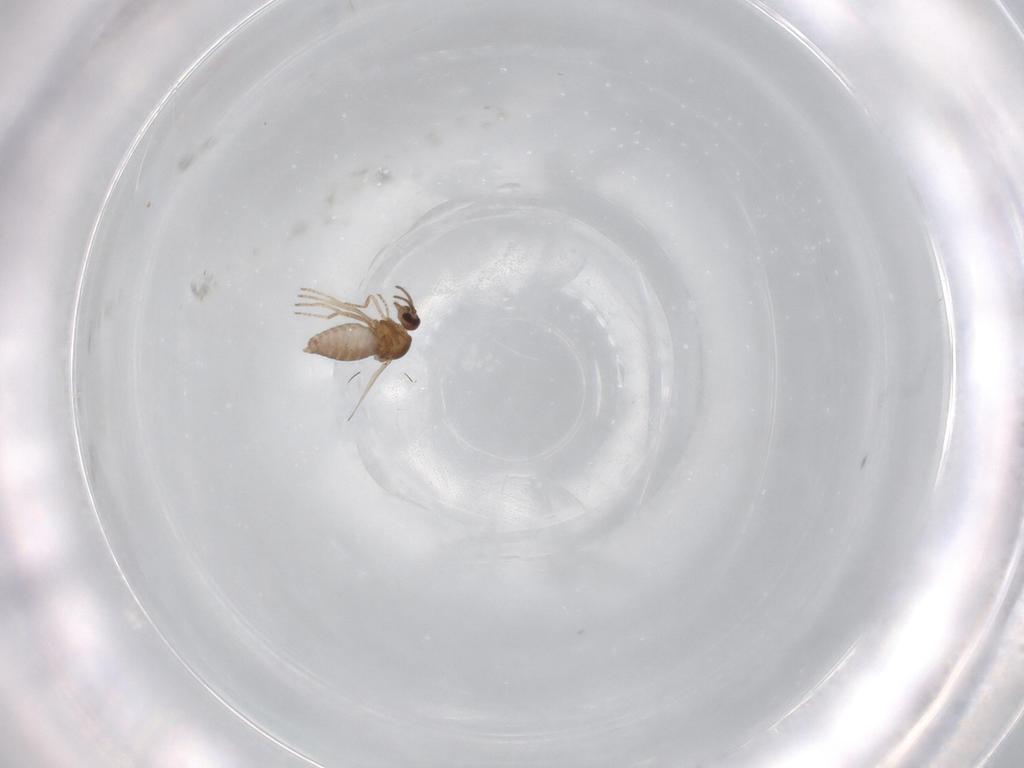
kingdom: Animalia
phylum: Arthropoda
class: Insecta
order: Diptera
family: Ceratopogonidae
